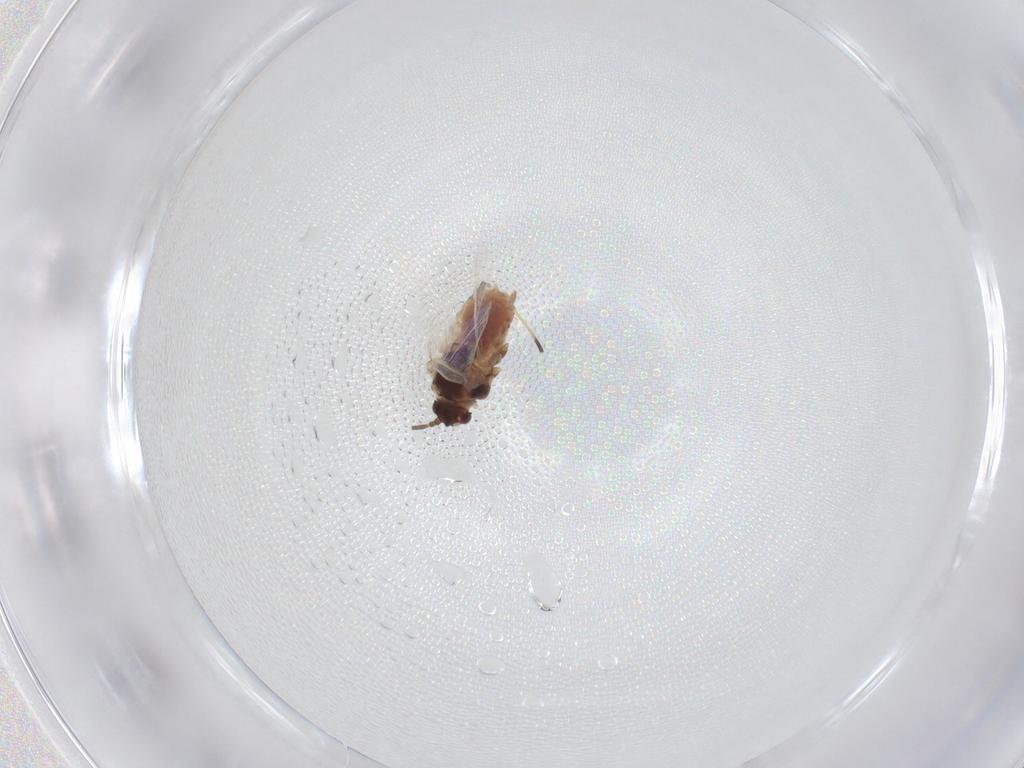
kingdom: Animalia
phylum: Arthropoda
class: Insecta
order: Hemiptera
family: Aphididae
